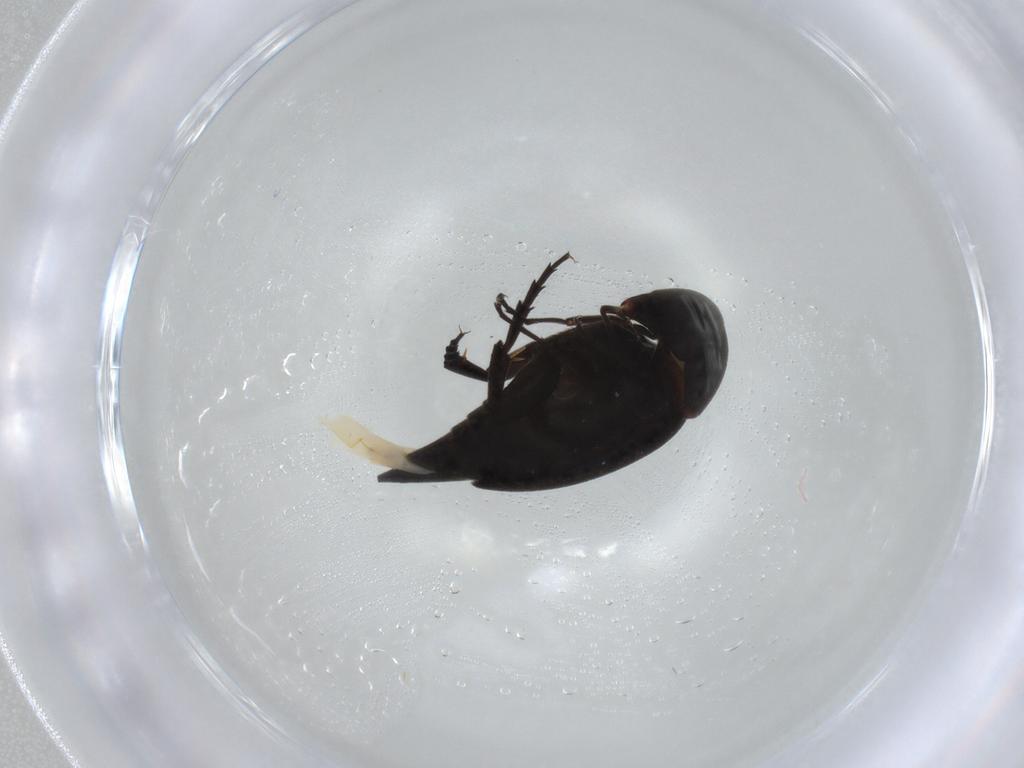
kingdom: Animalia
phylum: Arthropoda
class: Insecta
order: Coleoptera
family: Mordellidae
